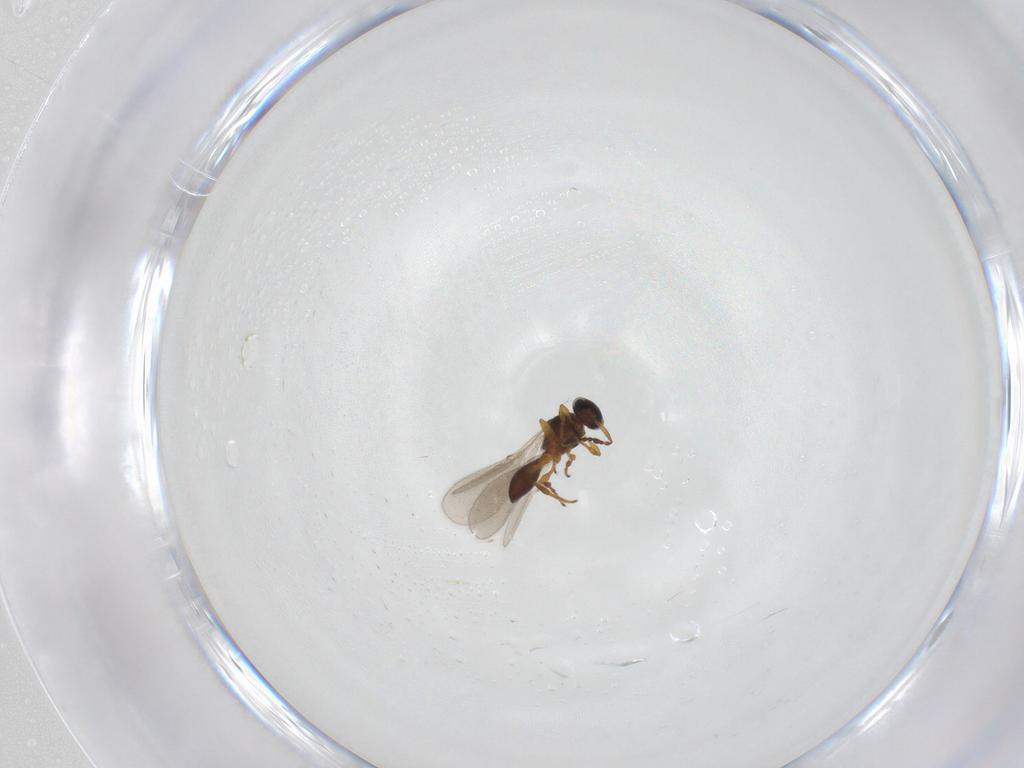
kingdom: Animalia
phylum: Arthropoda
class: Insecta
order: Hymenoptera
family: Platygastridae
